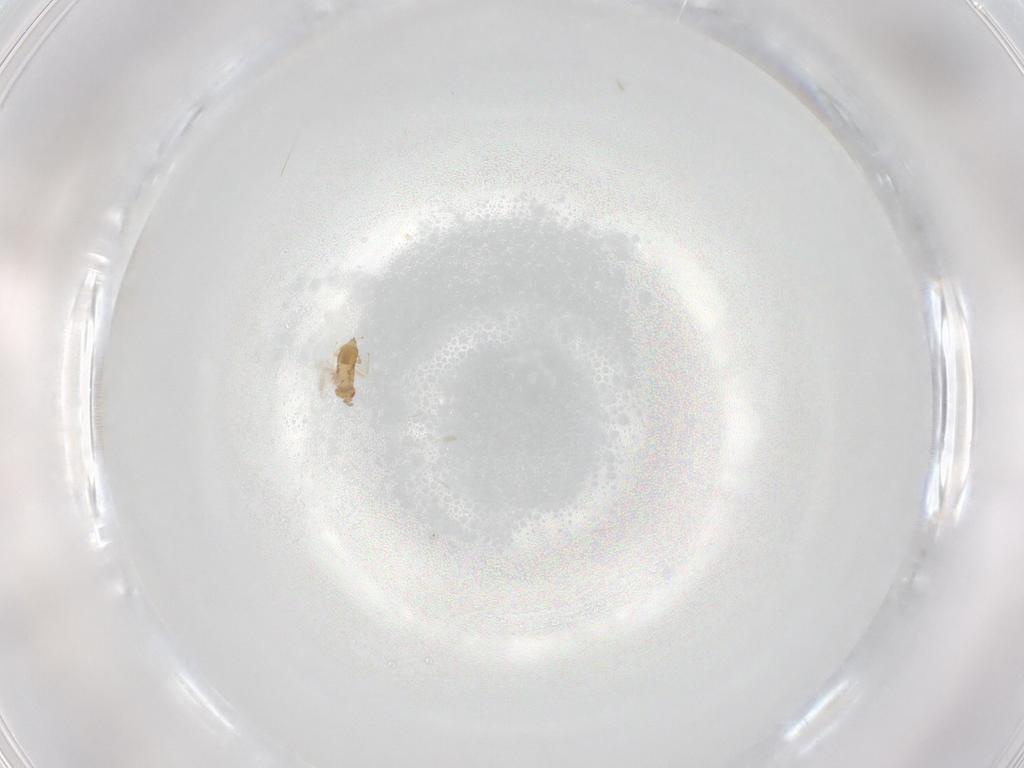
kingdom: Animalia
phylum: Arthropoda
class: Insecta
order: Hymenoptera
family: Trichogrammatidae
